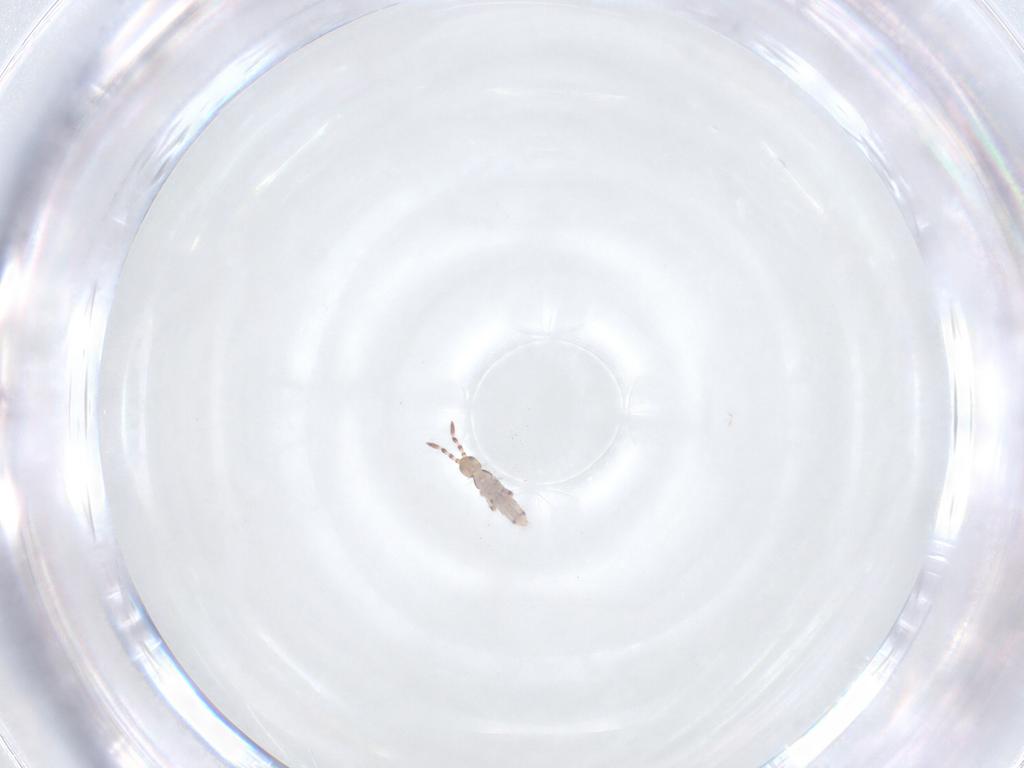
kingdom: Animalia
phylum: Arthropoda
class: Collembola
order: Entomobryomorpha
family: Entomobryidae
